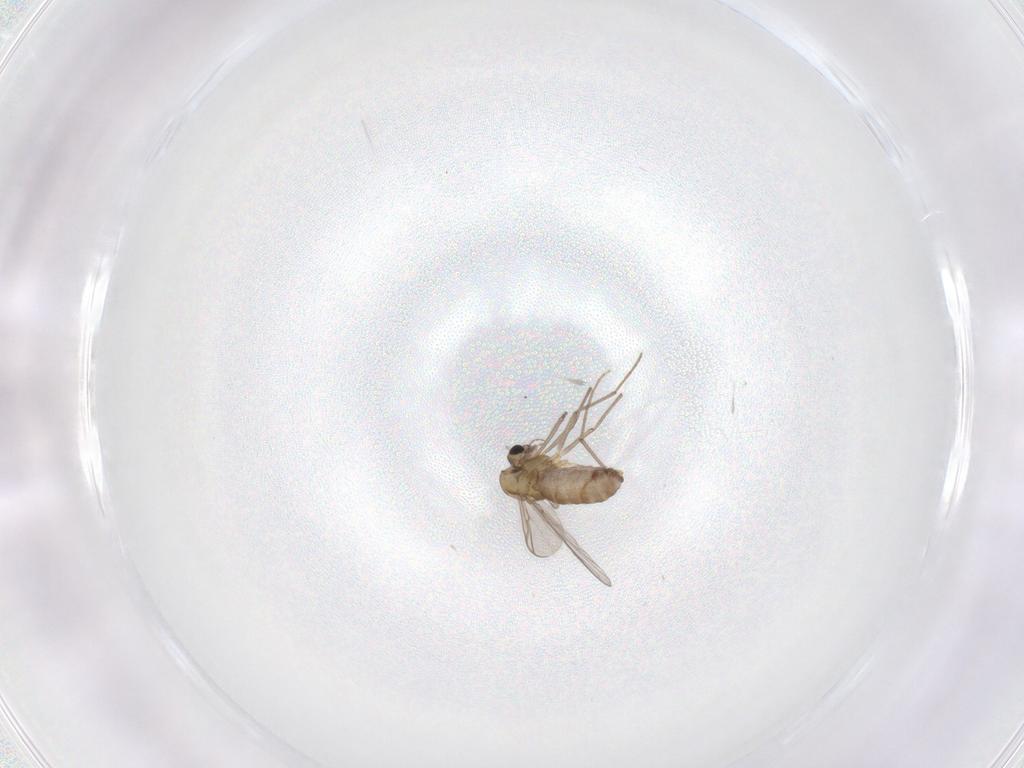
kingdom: Animalia
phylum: Arthropoda
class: Insecta
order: Diptera
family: Chironomidae
